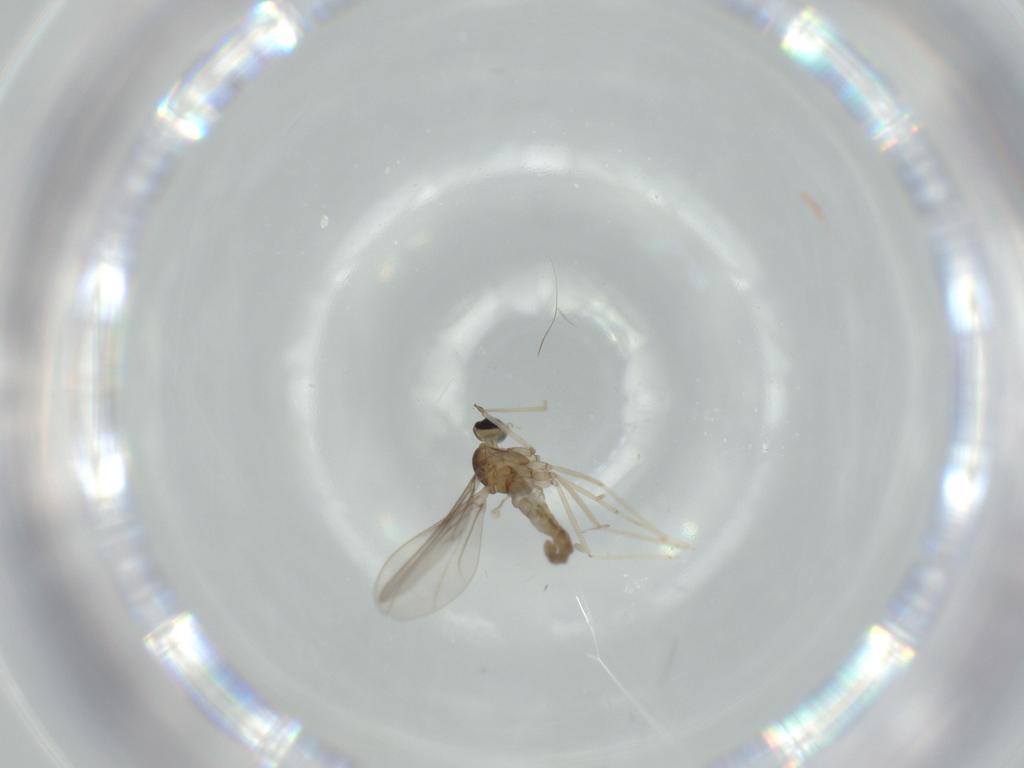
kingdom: Animalia
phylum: Arthropoda
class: Insecta
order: Diptera
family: Cecidomyiidae
